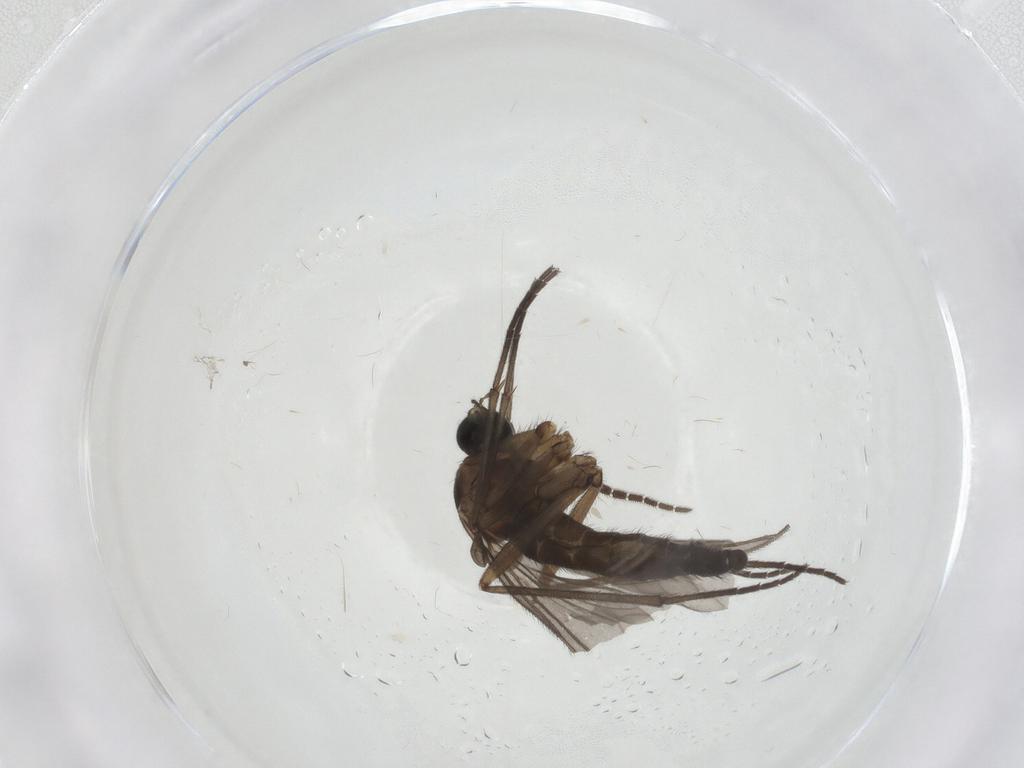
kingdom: Animalia
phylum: Arthropoda
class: Insecta
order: Diptera
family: Sciaridae
